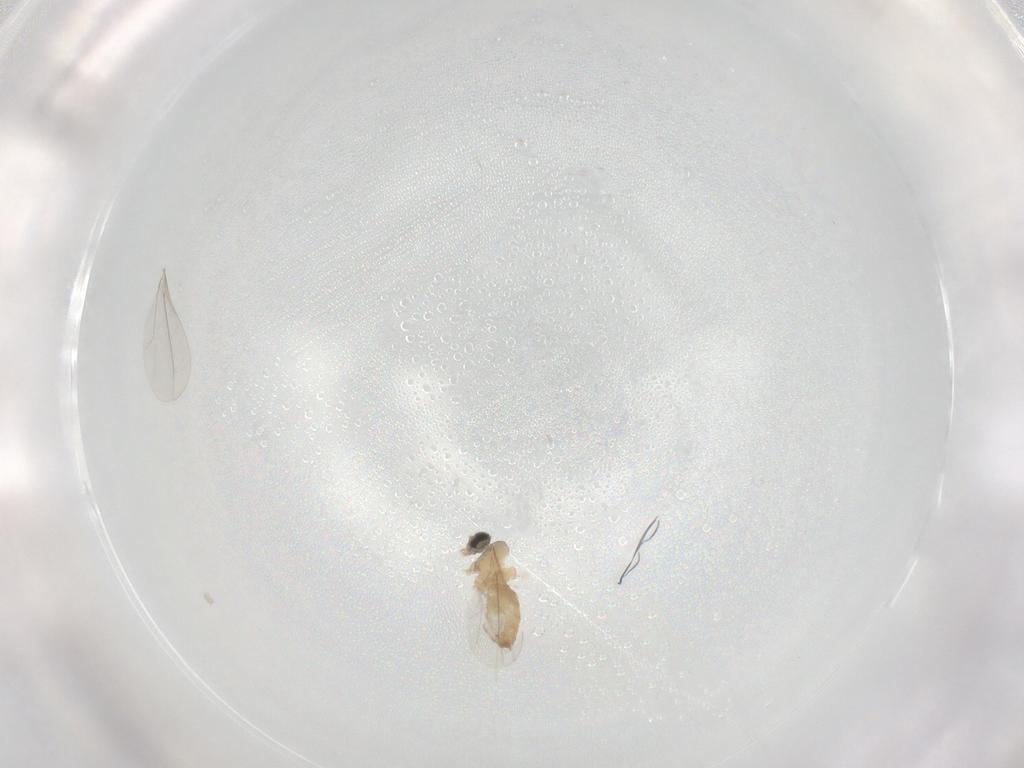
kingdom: Animalia
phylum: Arthropoda
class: Insecta
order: Diptera
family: Cecidomyiidae
